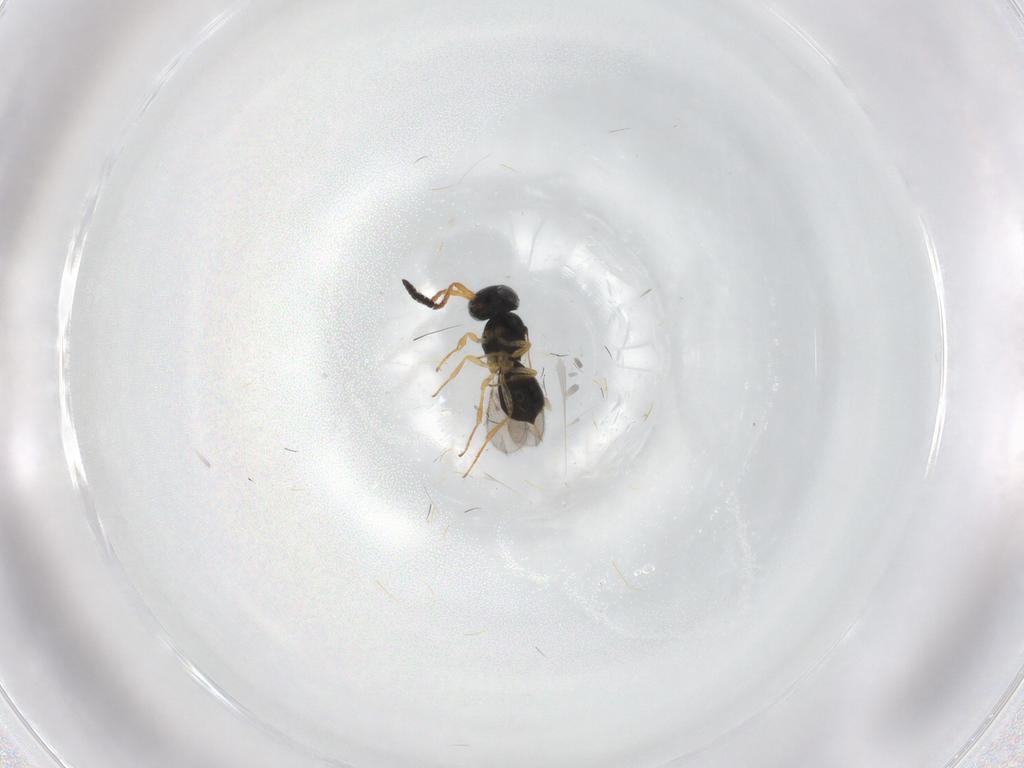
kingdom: Animalia
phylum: Arthropoda
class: Insecta
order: Hymenoptera
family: Scelionidae
